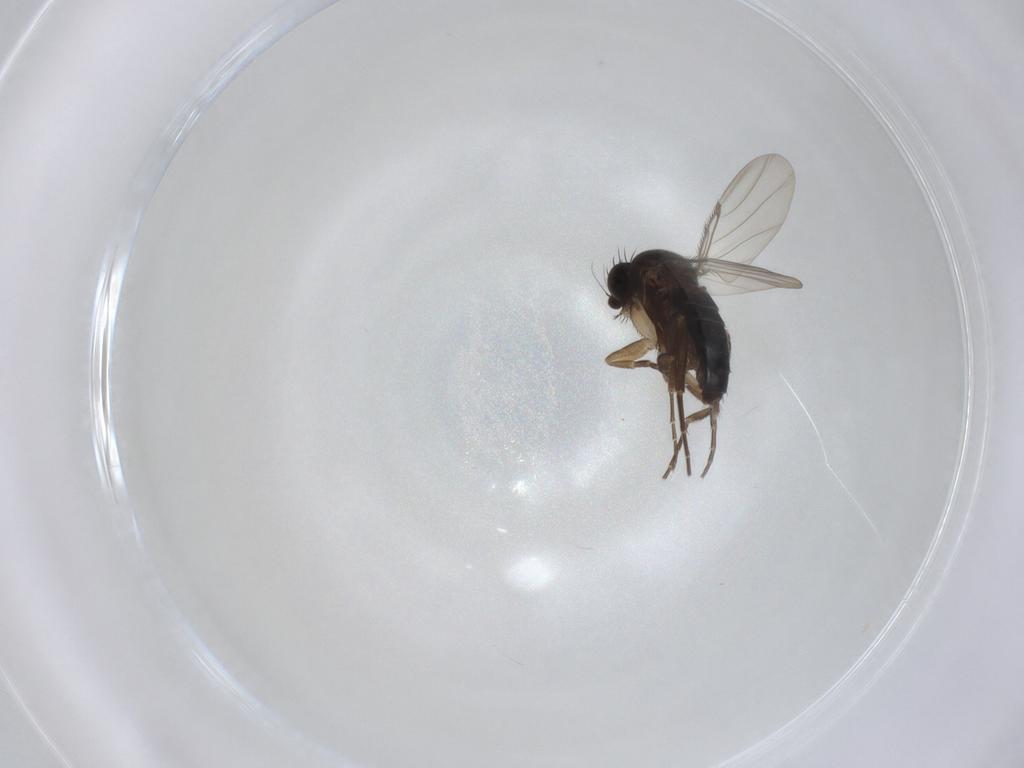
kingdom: Animalia
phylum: Arthropoda
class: Insecta
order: Diptera
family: Phoridae
